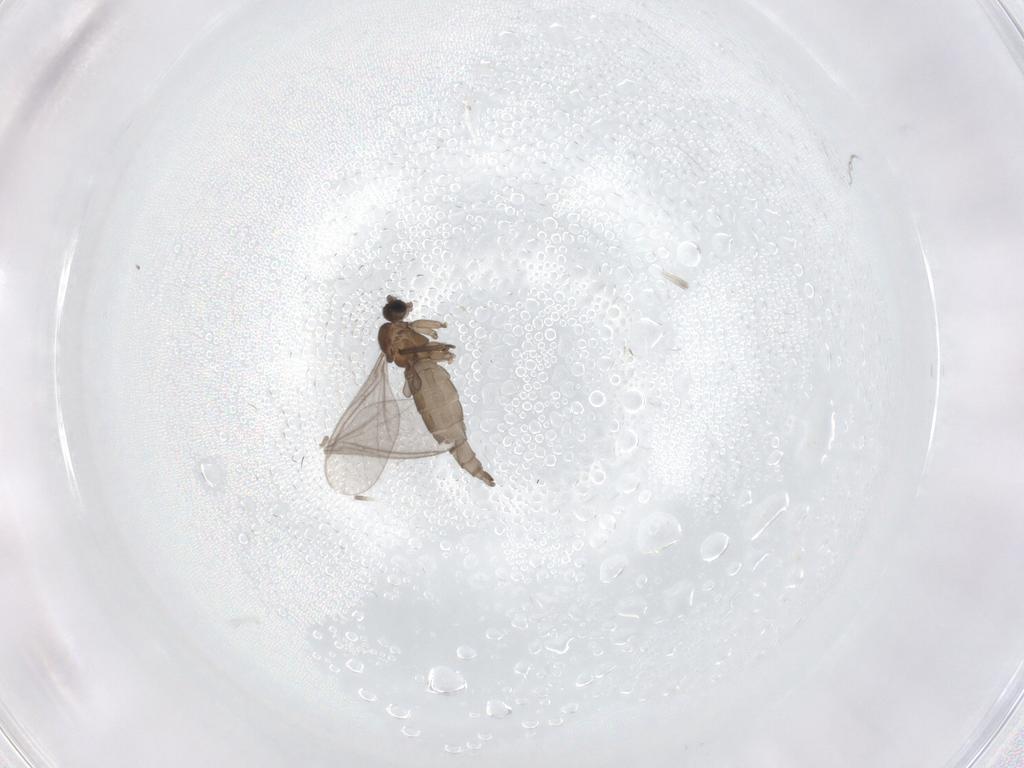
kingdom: Animalia
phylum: Arthropoda
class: Insecta
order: Diptera
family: Sciaridae
